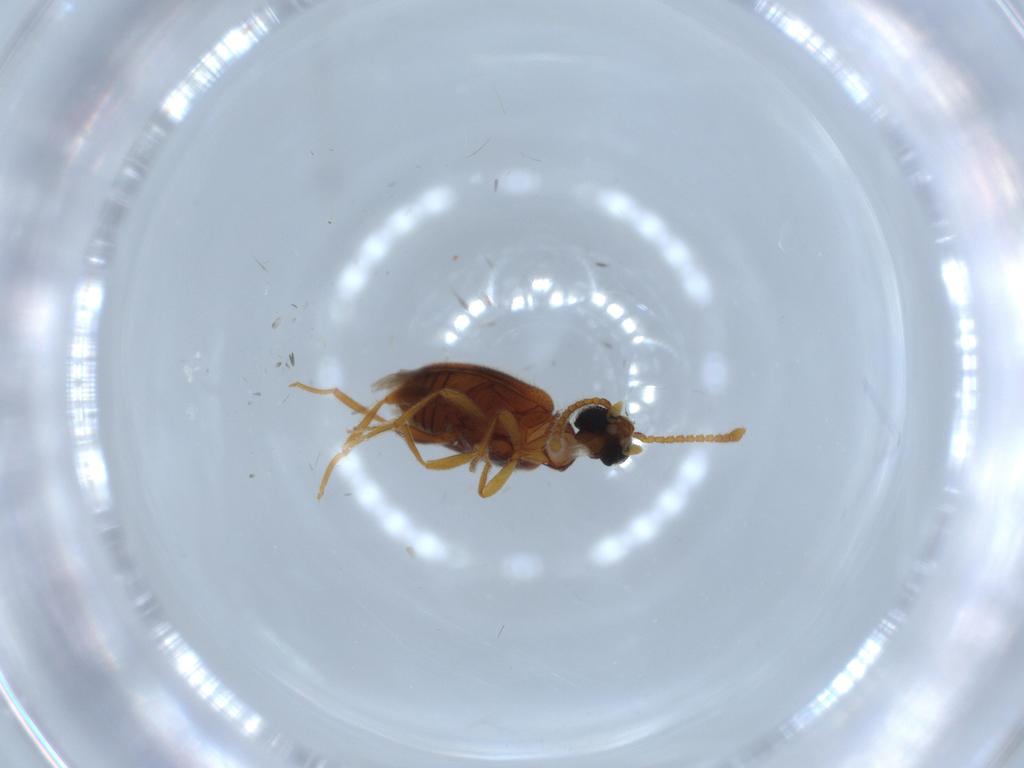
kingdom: Animalia
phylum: Arthropoda
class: Insecta
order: Coleoptera
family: Aderidae
